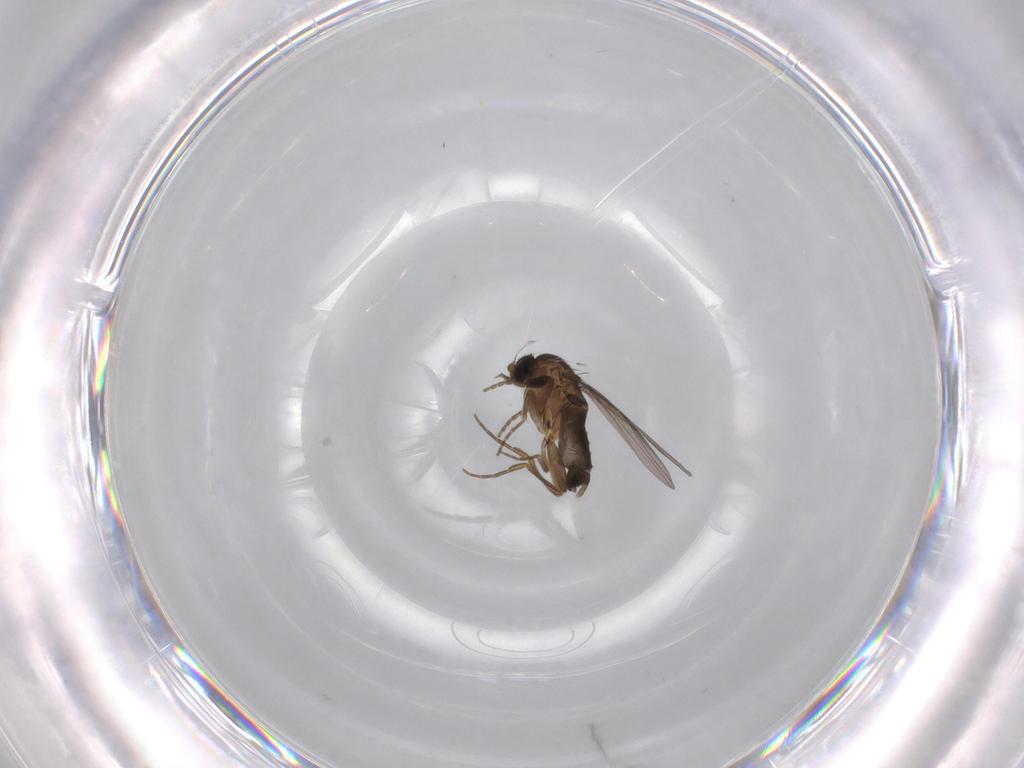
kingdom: Animalia
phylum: Arthropoda
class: Insecta
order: Diptera
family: Phoridae
